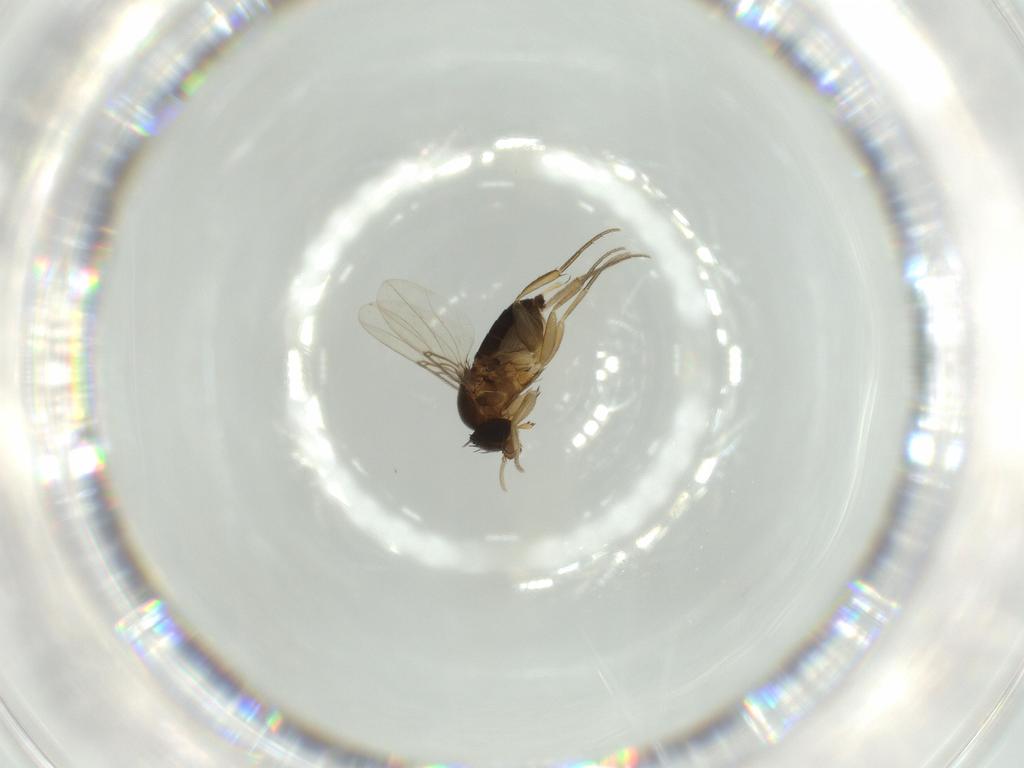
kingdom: Animalia
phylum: Arthropoda
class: Insecta
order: Diptera
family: Phoridae
